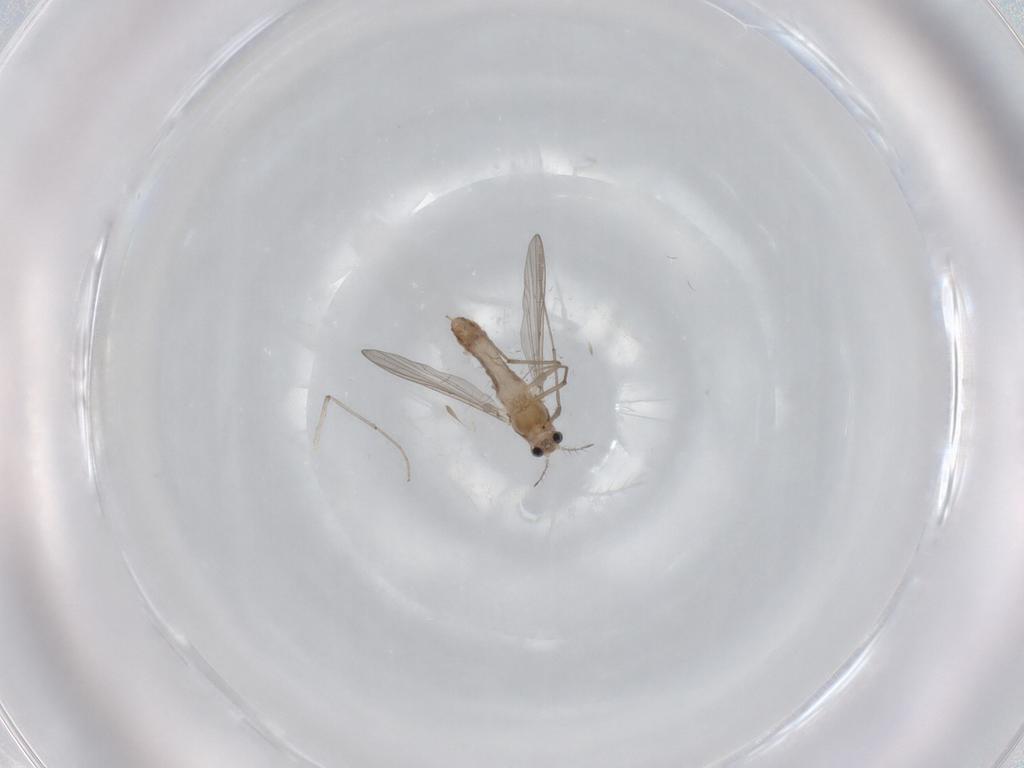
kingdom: Animalia
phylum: Arthropoda
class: Insecta
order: Diptera
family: Chironomidae
